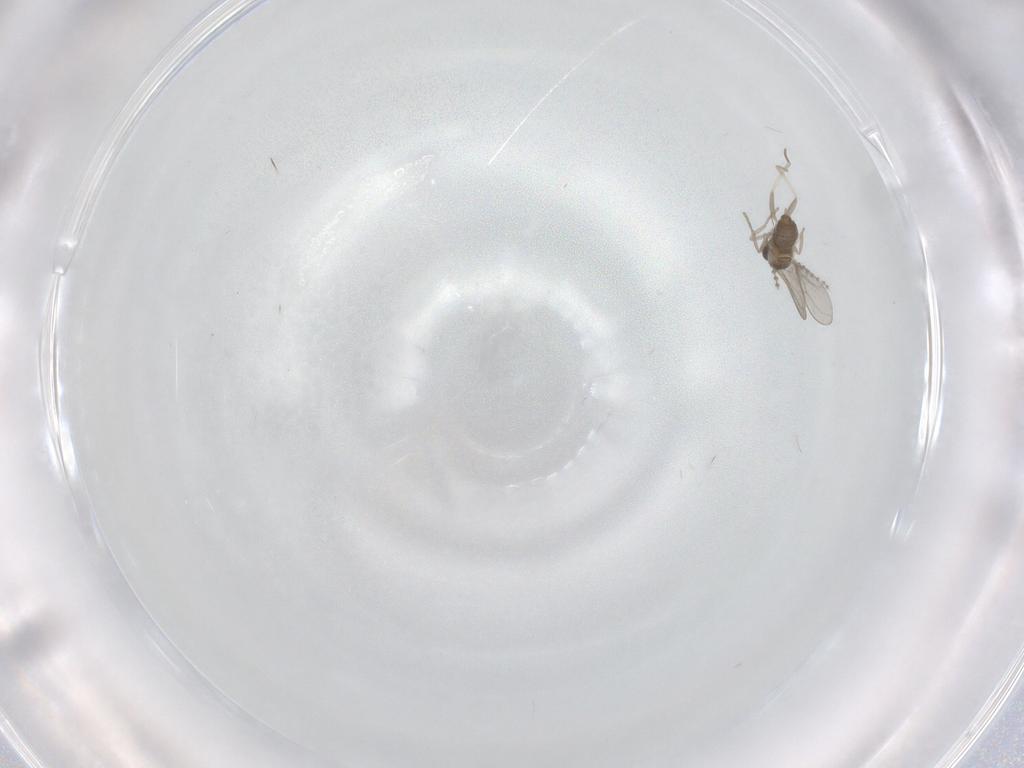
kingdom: Animalia
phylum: Arthropoda
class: Insecta
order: Diptera
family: Cecidomyiidae
